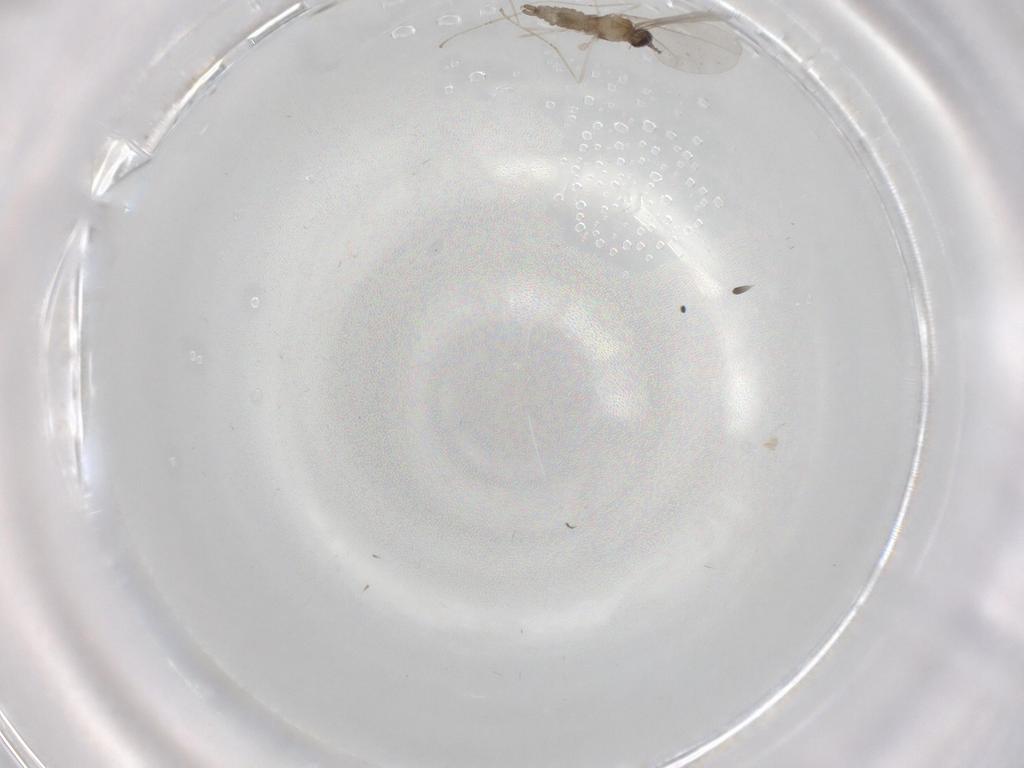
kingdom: Animalia
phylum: Arthropoda
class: Insecta
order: Diptera
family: Cecidomyiidae
